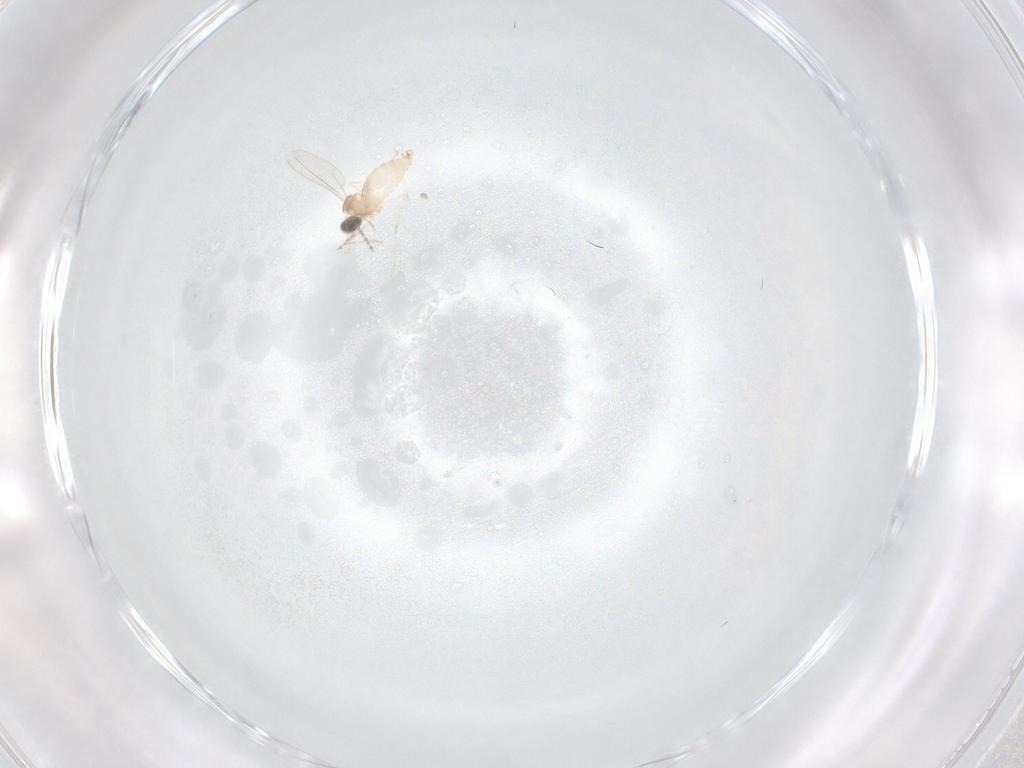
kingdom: Animalia
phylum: Arthropoda
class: Insecta
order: Diptera
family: Cecidomyiidae
